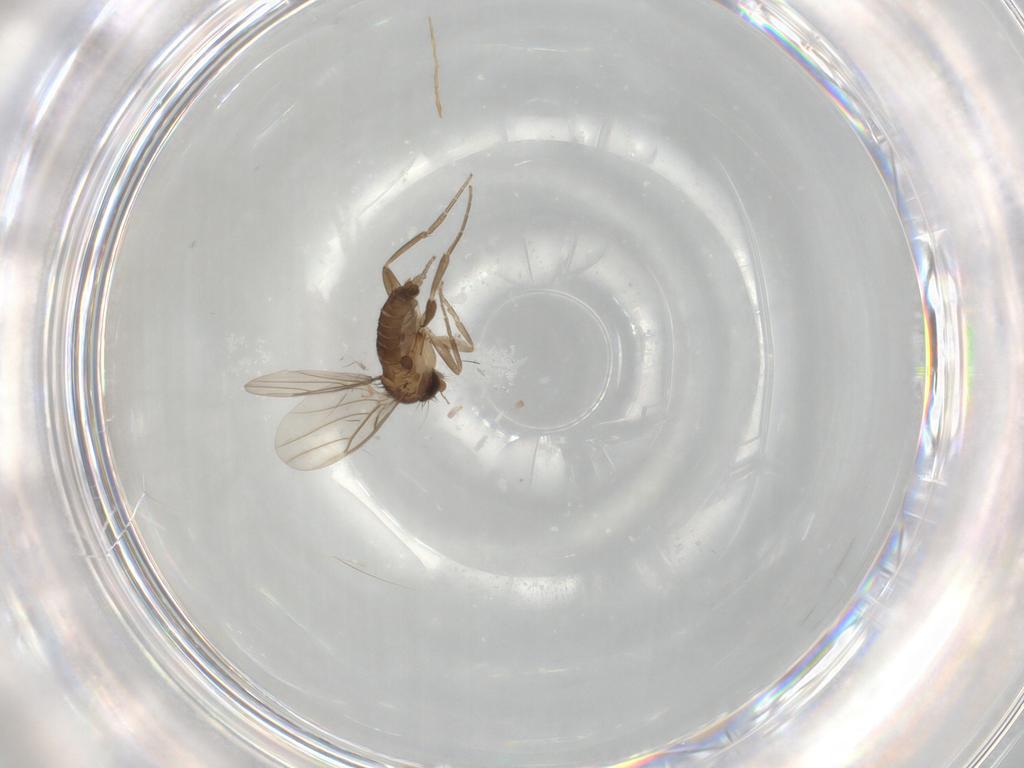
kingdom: Animalia
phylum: Arthropoda
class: Insecta
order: Diptera
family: Phoridae
